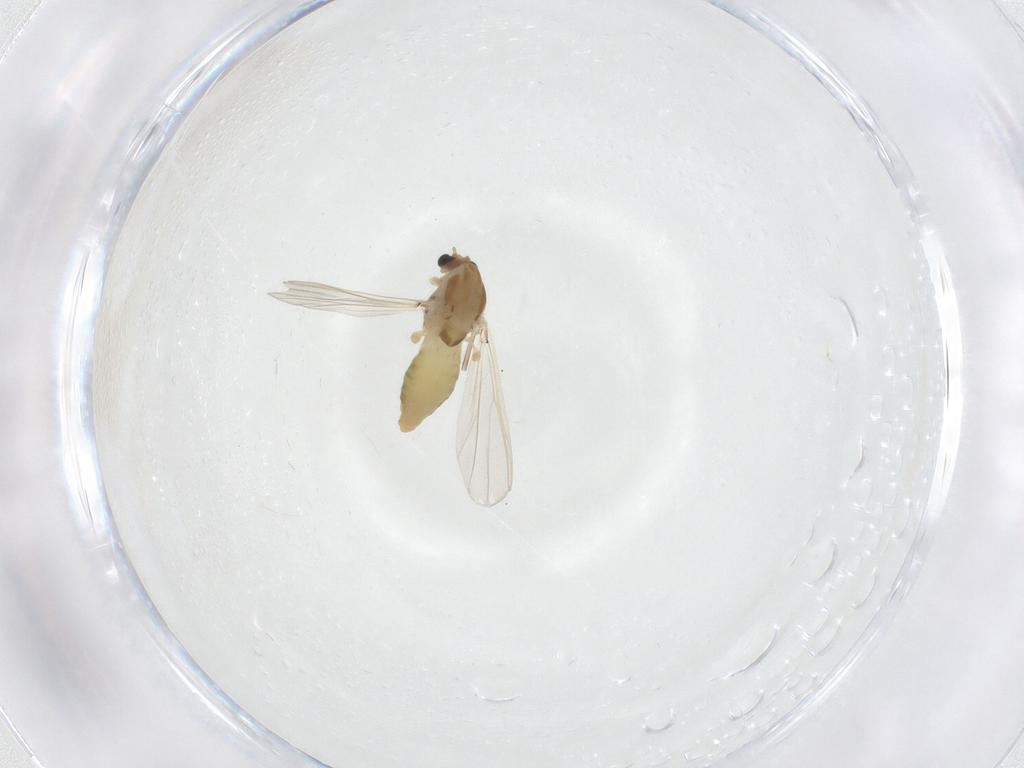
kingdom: Animalia
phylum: Arthropoda
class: Insecta
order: Diptera
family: Chironomidae
